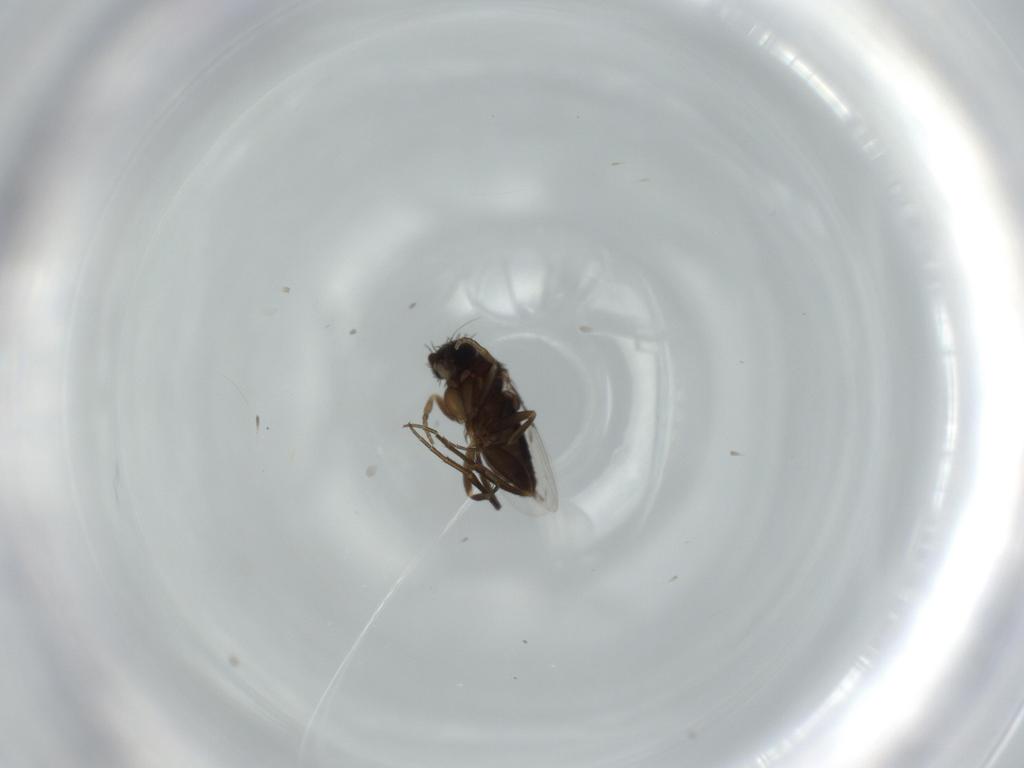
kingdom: Animalia
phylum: Arthropoda
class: Insecta
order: Diptera
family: Phoridae
